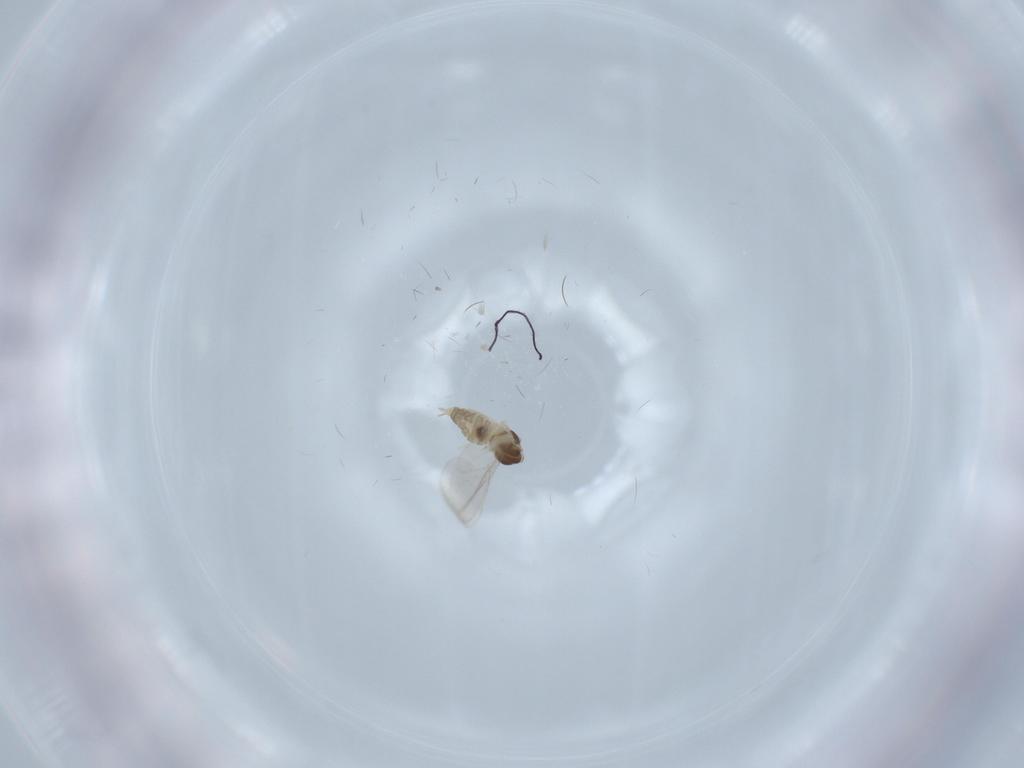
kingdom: Animalia
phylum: Arthropoda
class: Insecta
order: Diptera
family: Cecidomyiidae
